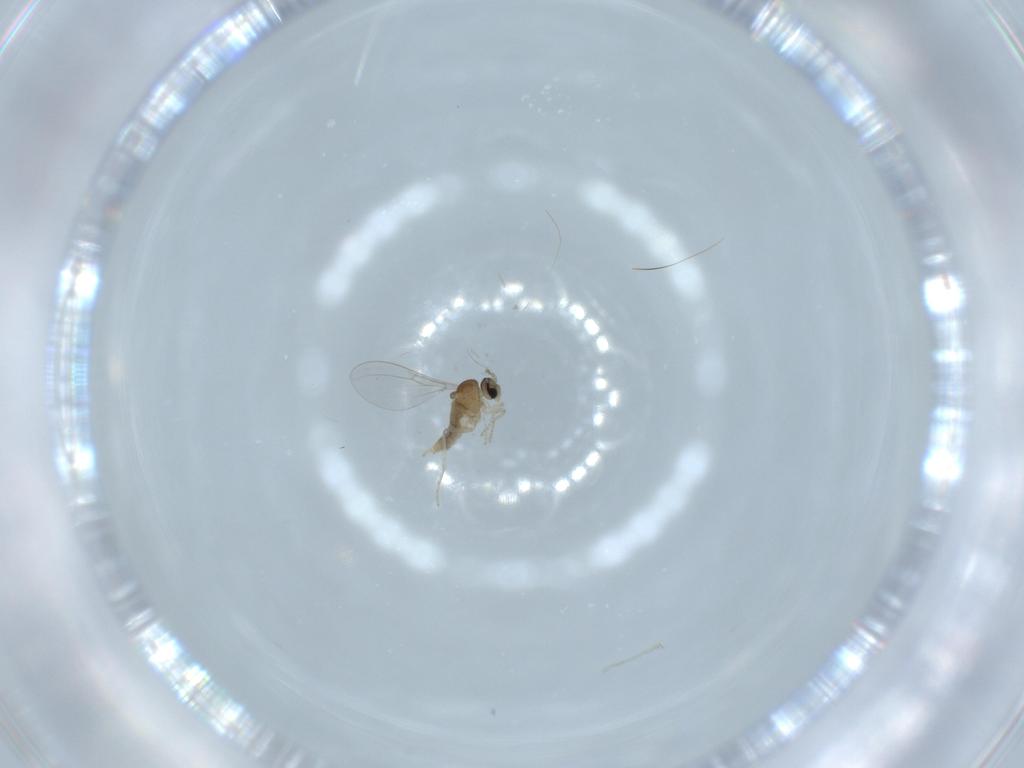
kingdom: Animalia
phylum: Arthropoda
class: Insecta
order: Diptera
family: Cecidomyiidae
